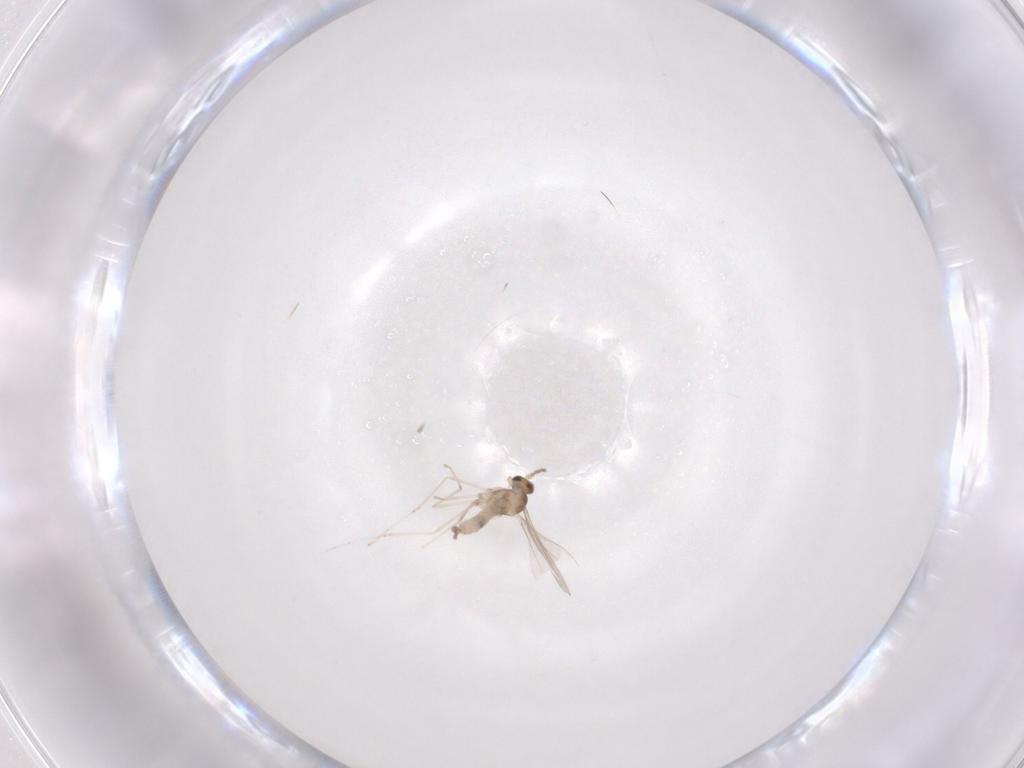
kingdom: Animalia
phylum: Arthropoda
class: Insecta
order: Diptera
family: Cecidomyiidae
